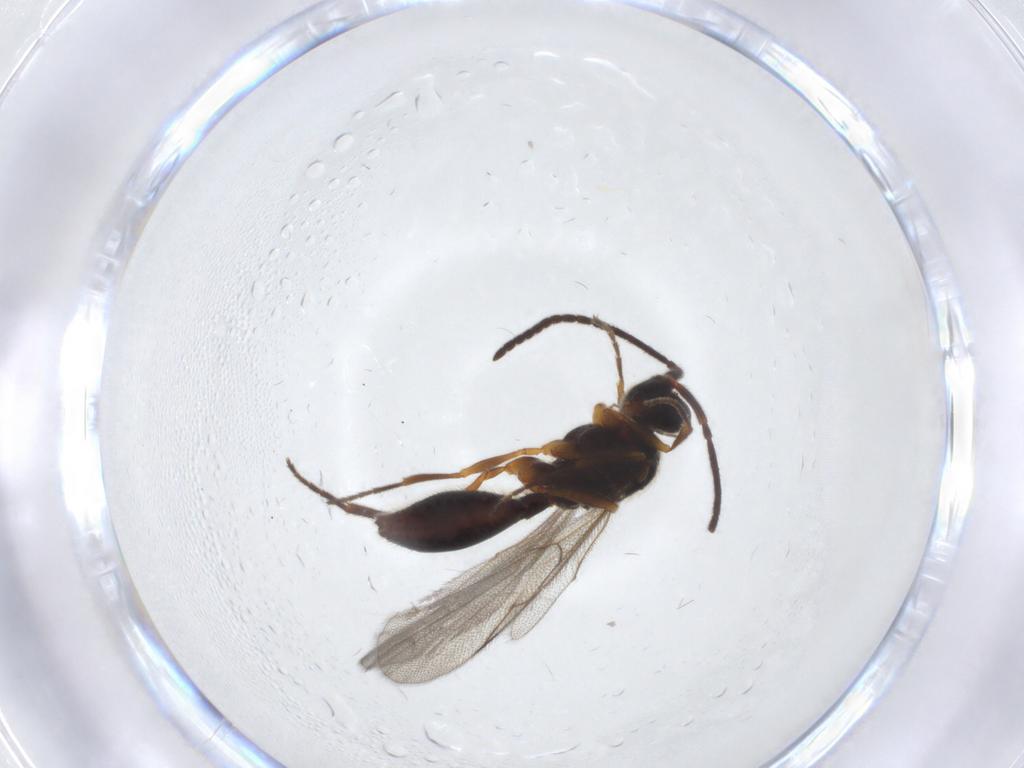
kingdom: Animalia
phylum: Arthropoda
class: Insecta
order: Hymenoptera
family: Diapriidae
